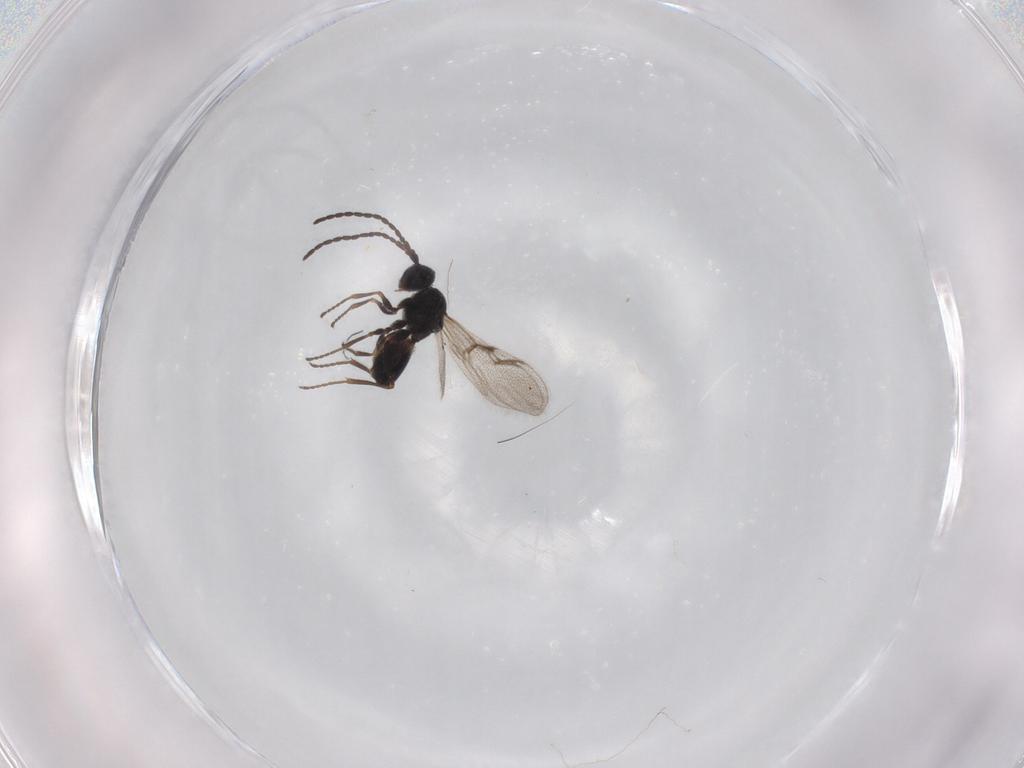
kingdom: Animalia
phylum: Arthropoda
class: Insecta
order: Hymenoptera
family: Figitidae
